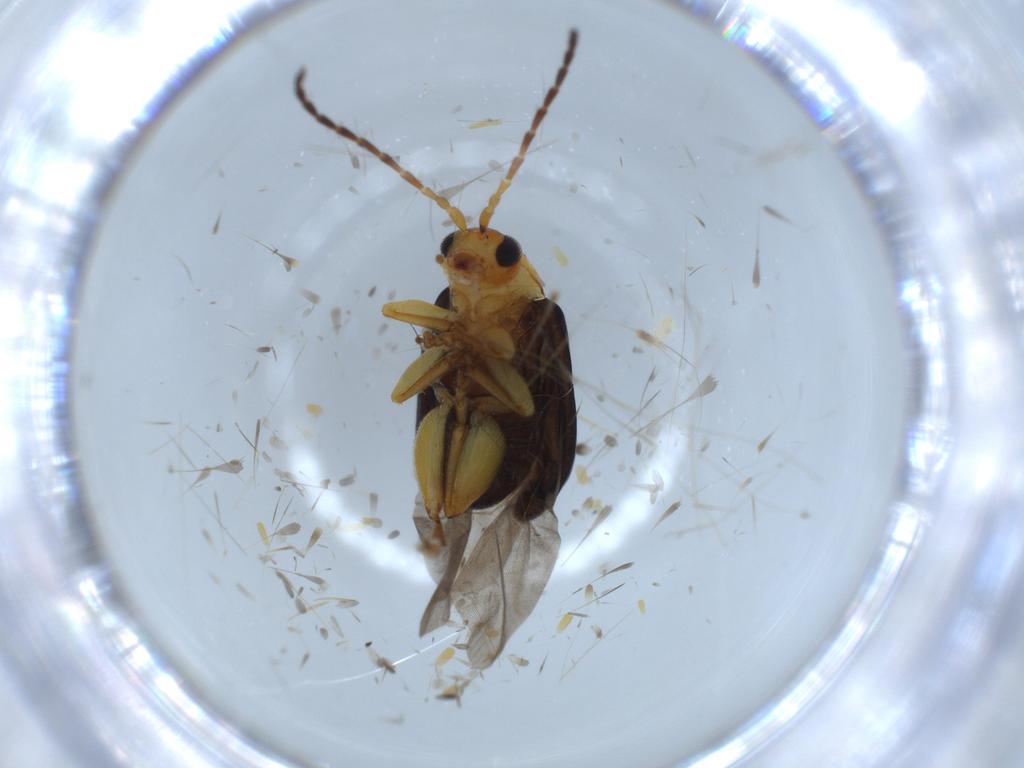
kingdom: Animalia
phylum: Arthropoda
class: Insecta
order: Coleoptera
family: Chrysomelidae
